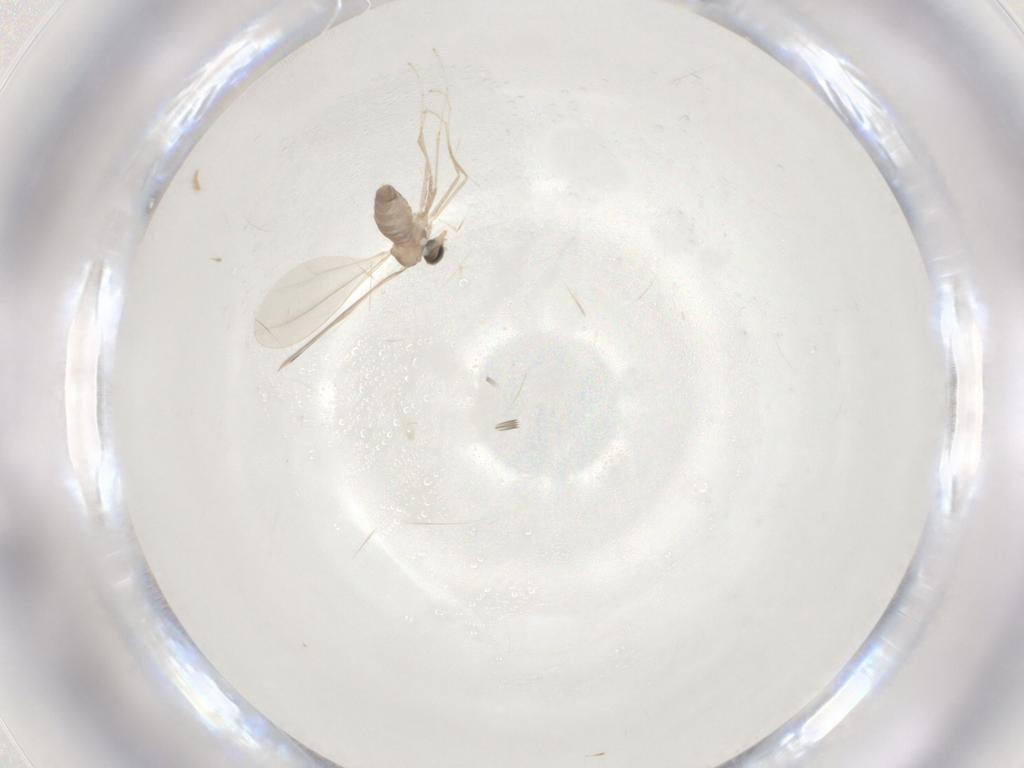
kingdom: Animalia
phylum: Arthropoda
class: Insecta
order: Diptera
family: Cecidomyiidae
